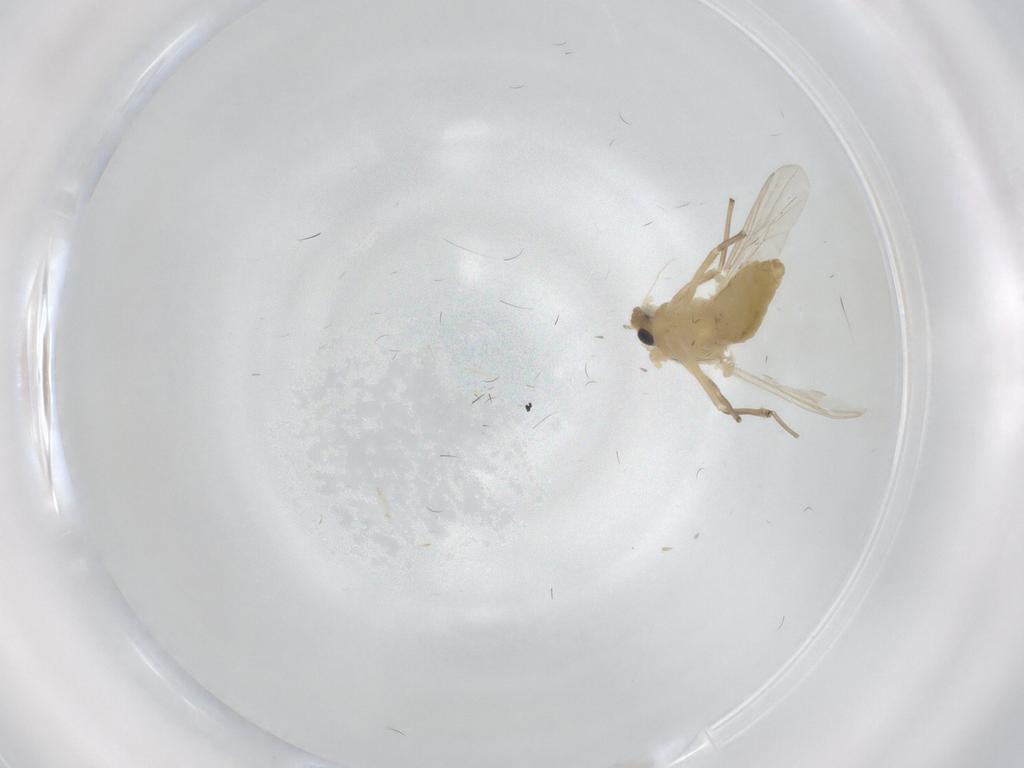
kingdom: Animalia
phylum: Arthropoda
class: Insecta
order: Diptera
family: Chironomidae
